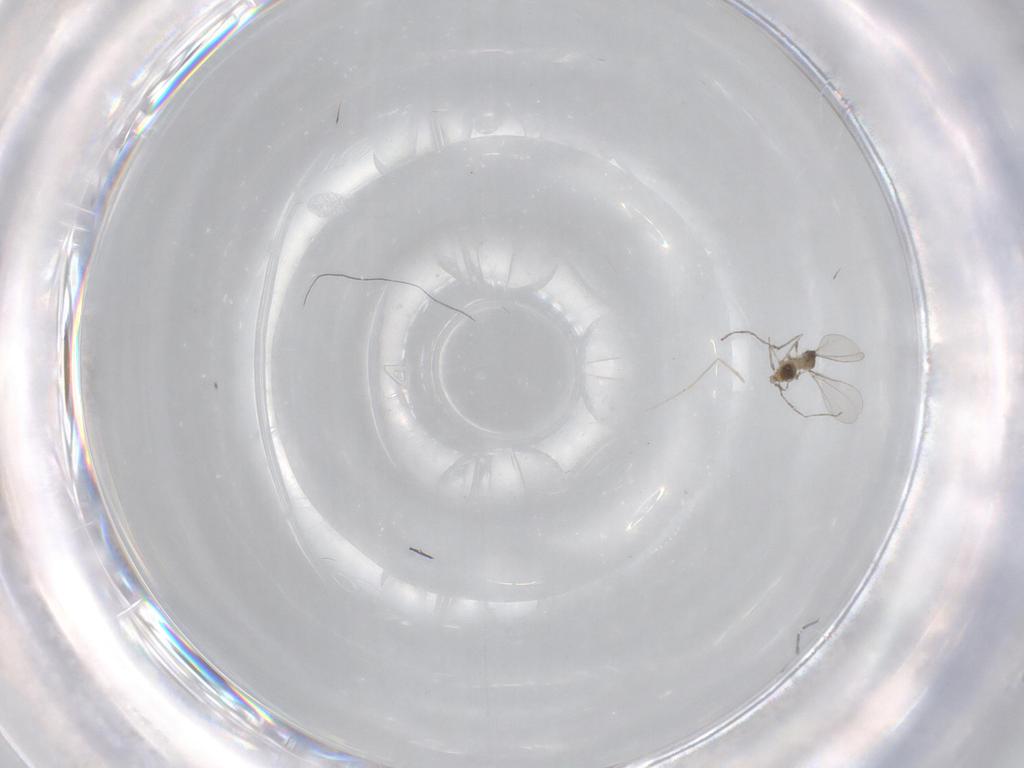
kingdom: Animalia
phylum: Arthropoda
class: Insecta
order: Diptera
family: Cecidomyiidae
